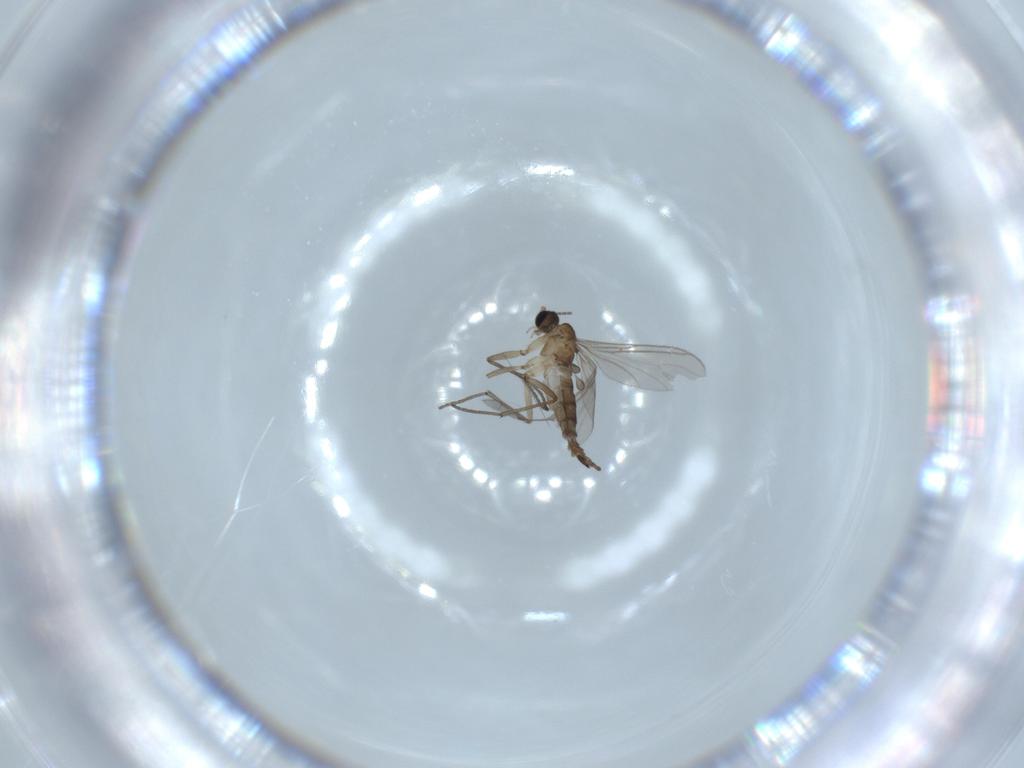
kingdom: Animalia
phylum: Arthropoda
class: Insecta
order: Diptera
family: Sciaridae
